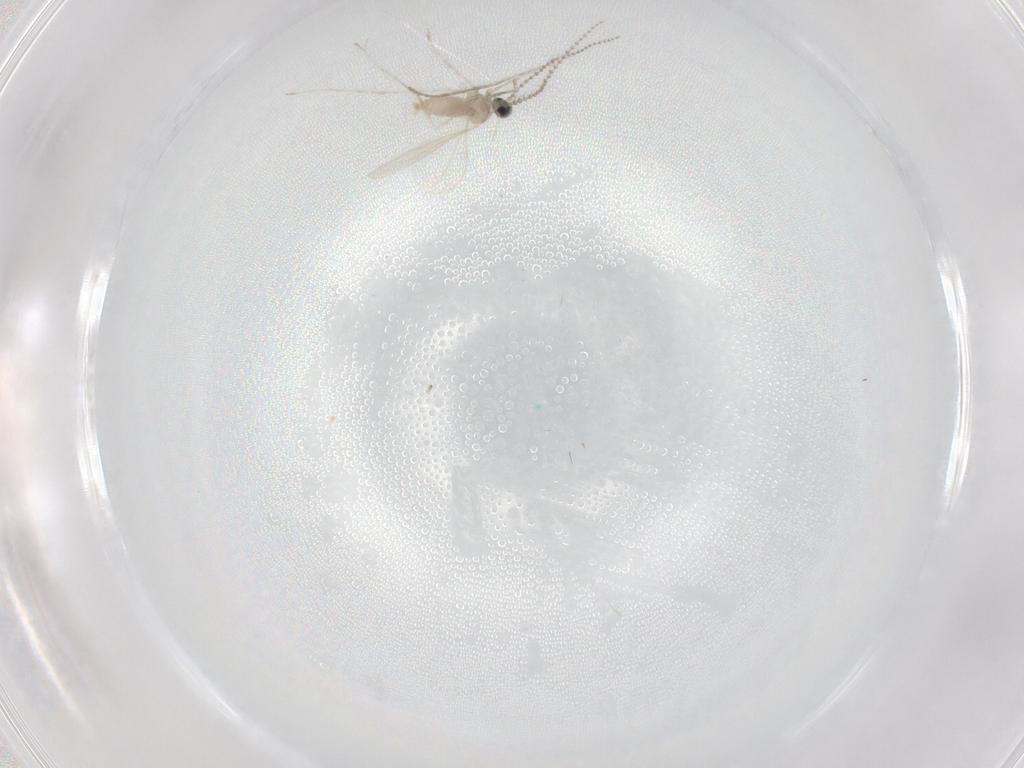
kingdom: Animalia
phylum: Arthropoda
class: Insecta
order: Diptera
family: Cecidomyiidae
